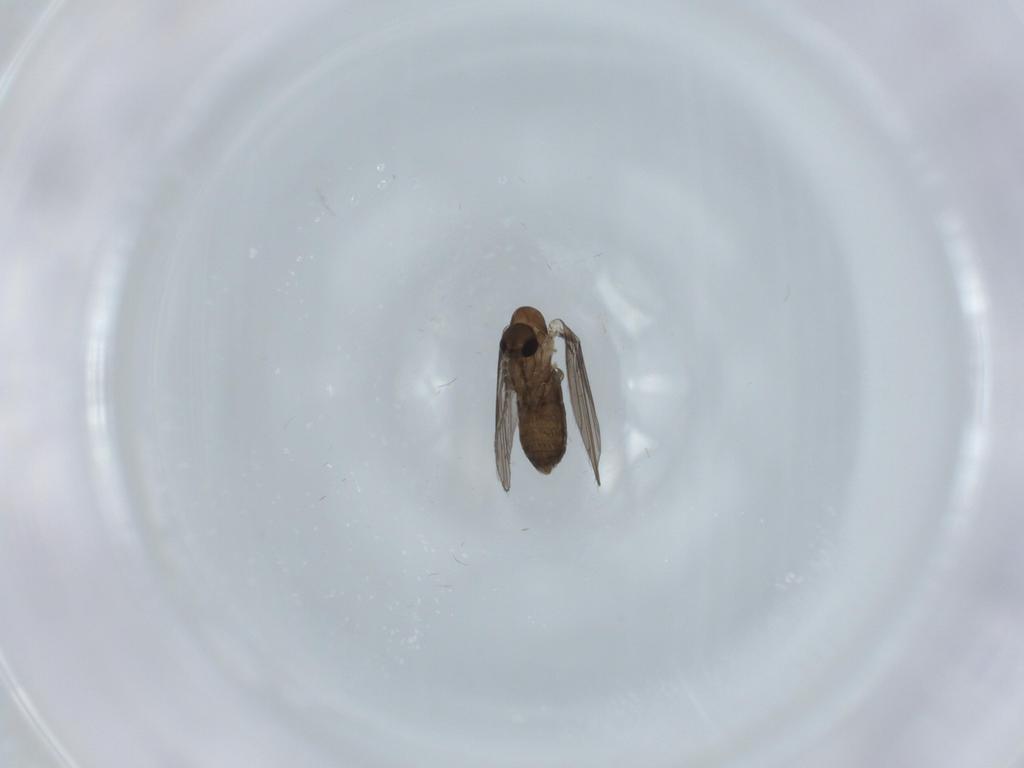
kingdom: Animalia
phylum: Arthropoda
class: Insecta
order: Diptera
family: Psychodidae
